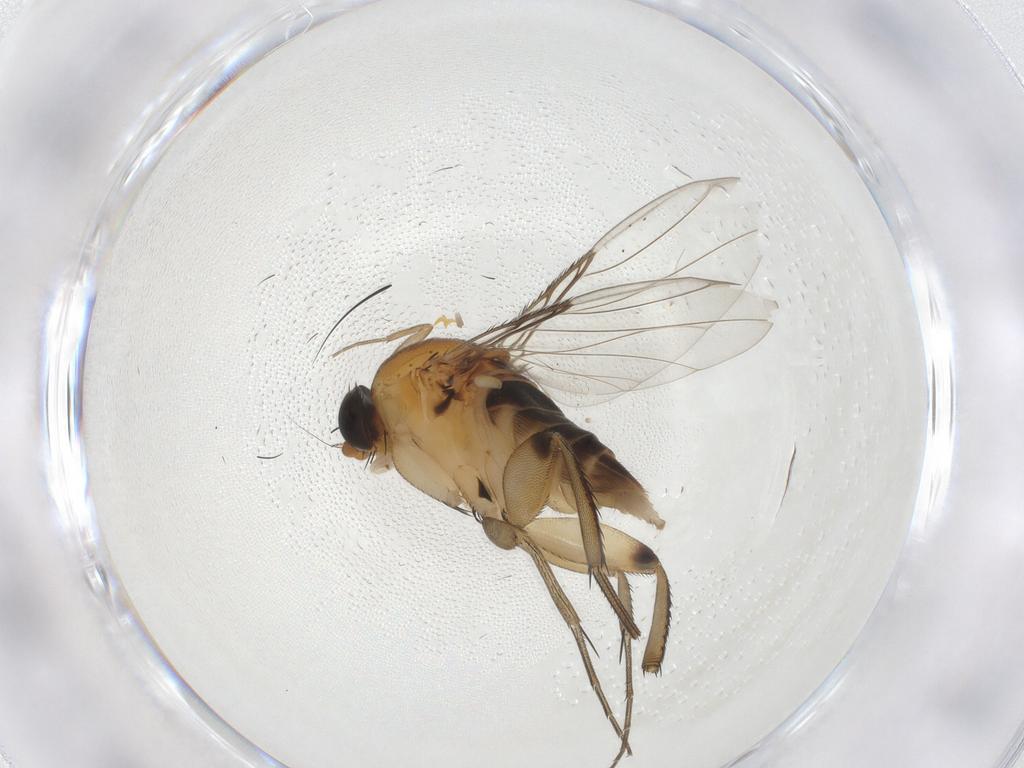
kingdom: Animalia
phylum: Arthropoda
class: Insecta
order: Diptera
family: Phoridae
